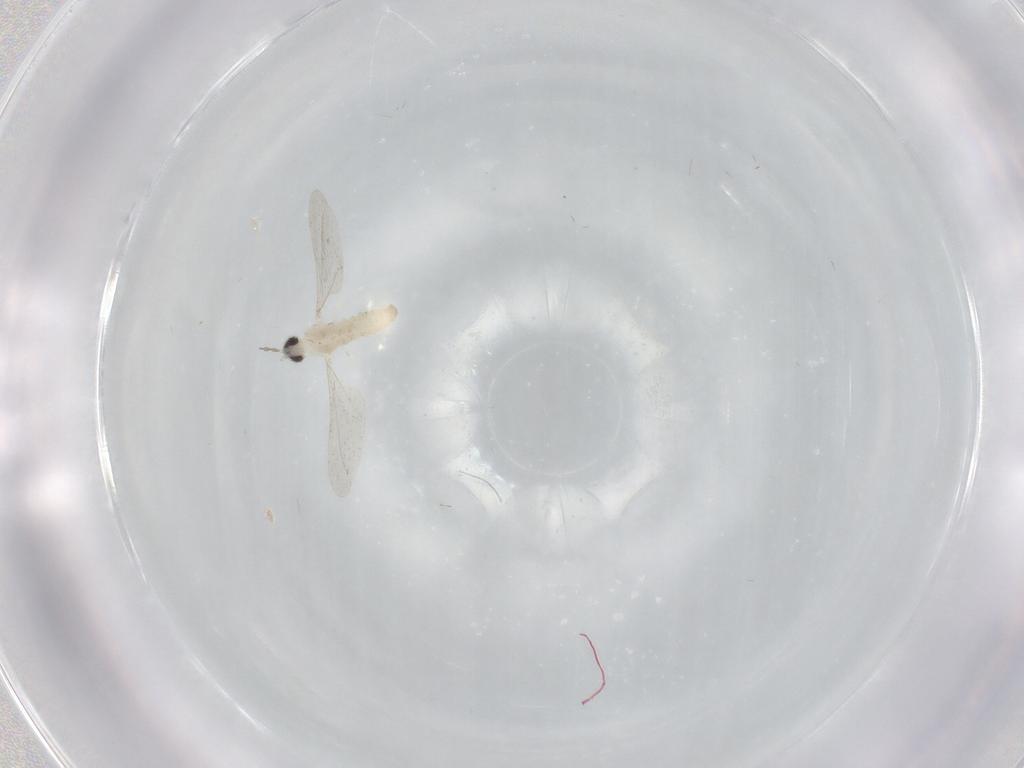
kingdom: Animalia
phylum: Arthropoda
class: Insecta
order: Diptera
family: Psychodidae
